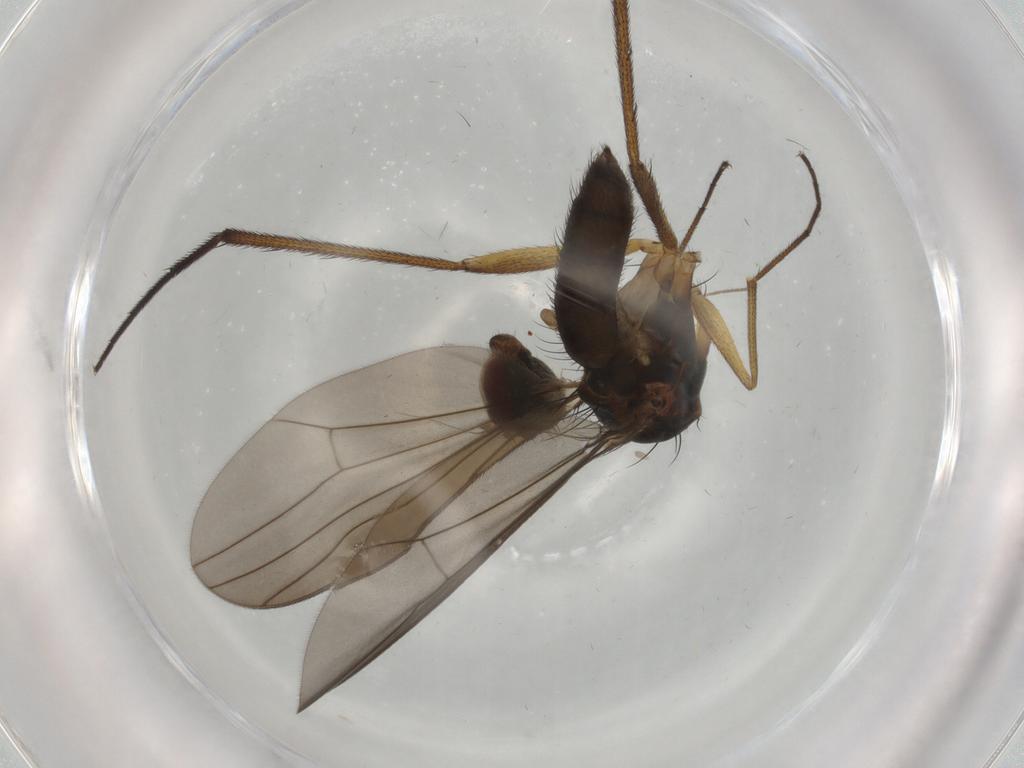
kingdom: Animalia
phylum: Arthropoda
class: Insecta
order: Diptera
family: Dolichopodidae
